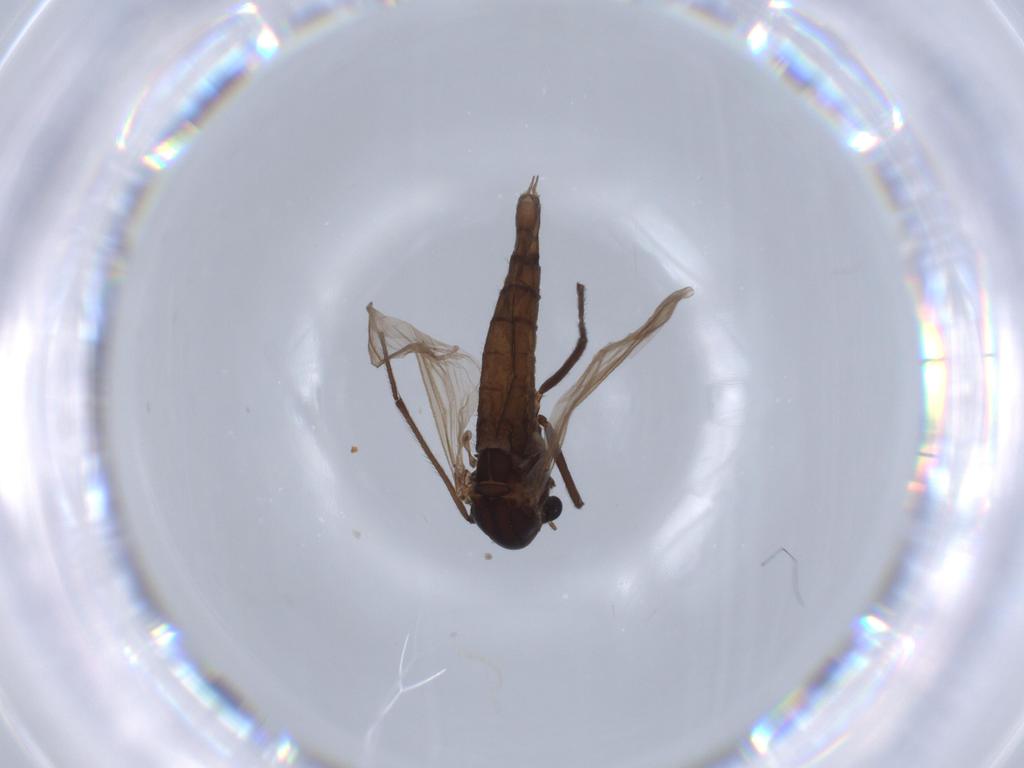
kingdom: Animalia
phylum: Arthropoda
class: Insecta
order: Diptera
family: Chironomidae
